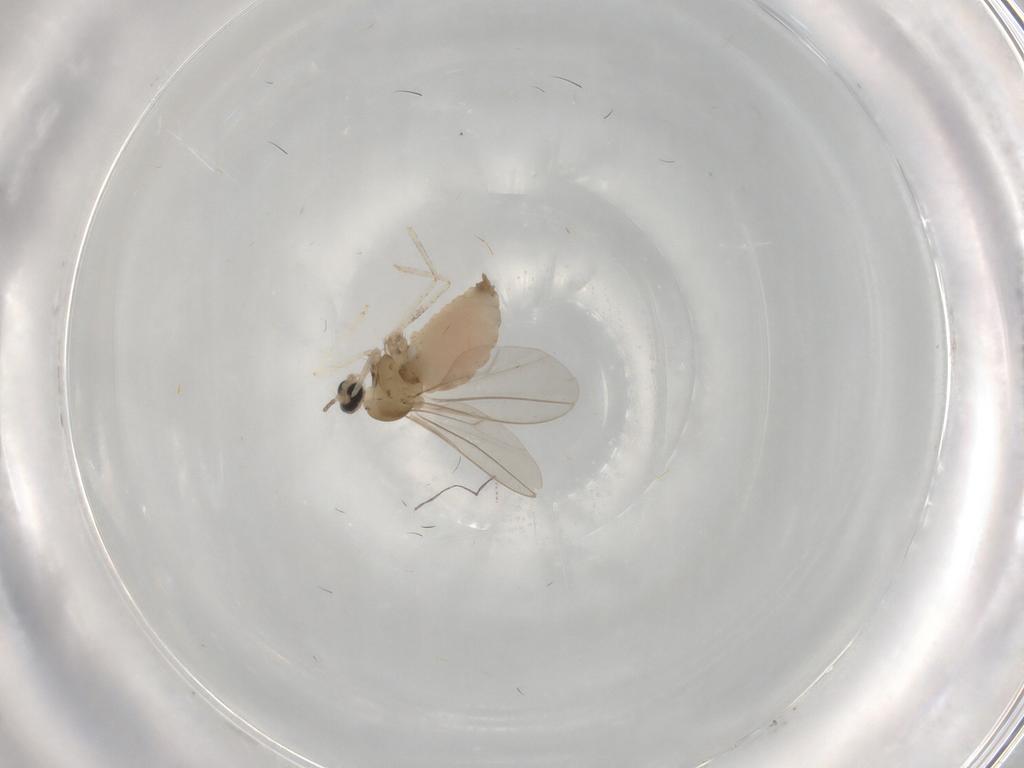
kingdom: Animalia
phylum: Arthropoda
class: Insecta
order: Diptera
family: Cecidomyiidae
